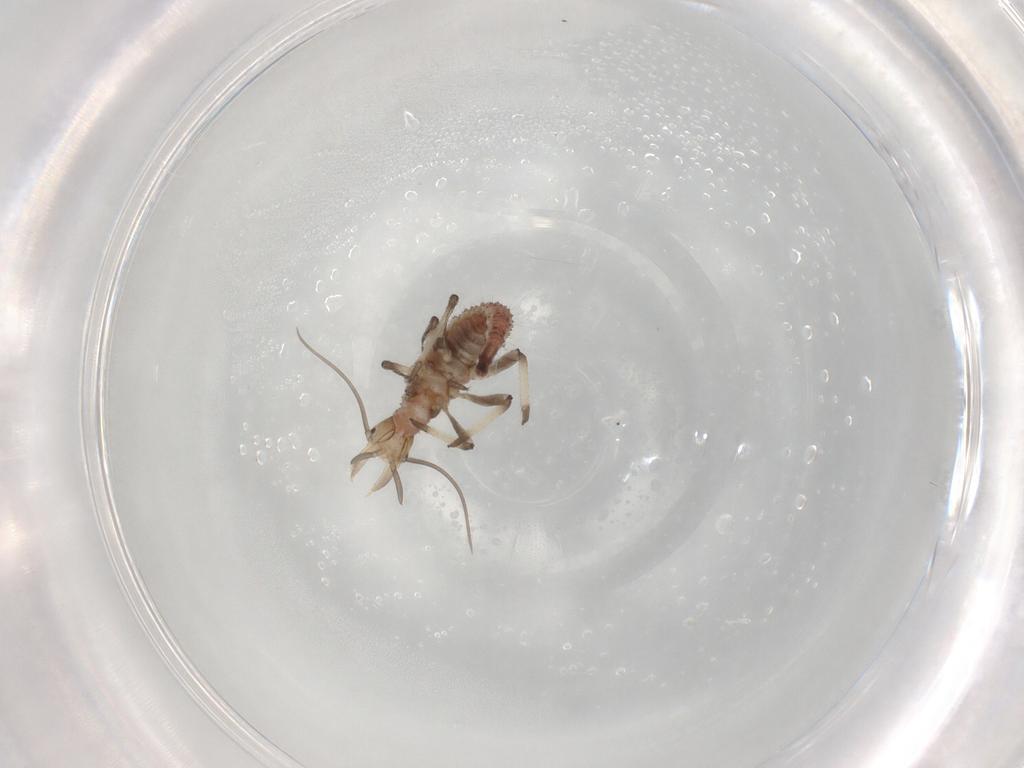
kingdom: Animalia
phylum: Arthropoda
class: Insecta
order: Neuroptera
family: Hemerobiidae
